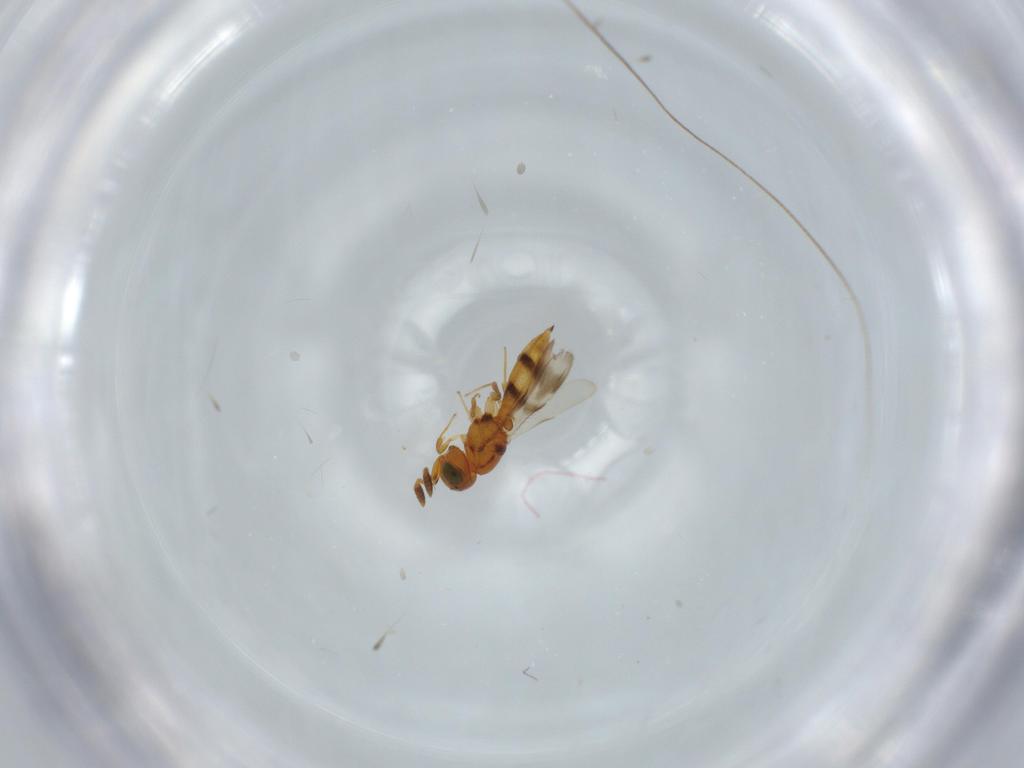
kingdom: Animalia
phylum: Arthropoda
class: Insecta
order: Hymenoptera
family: Scelionidae
